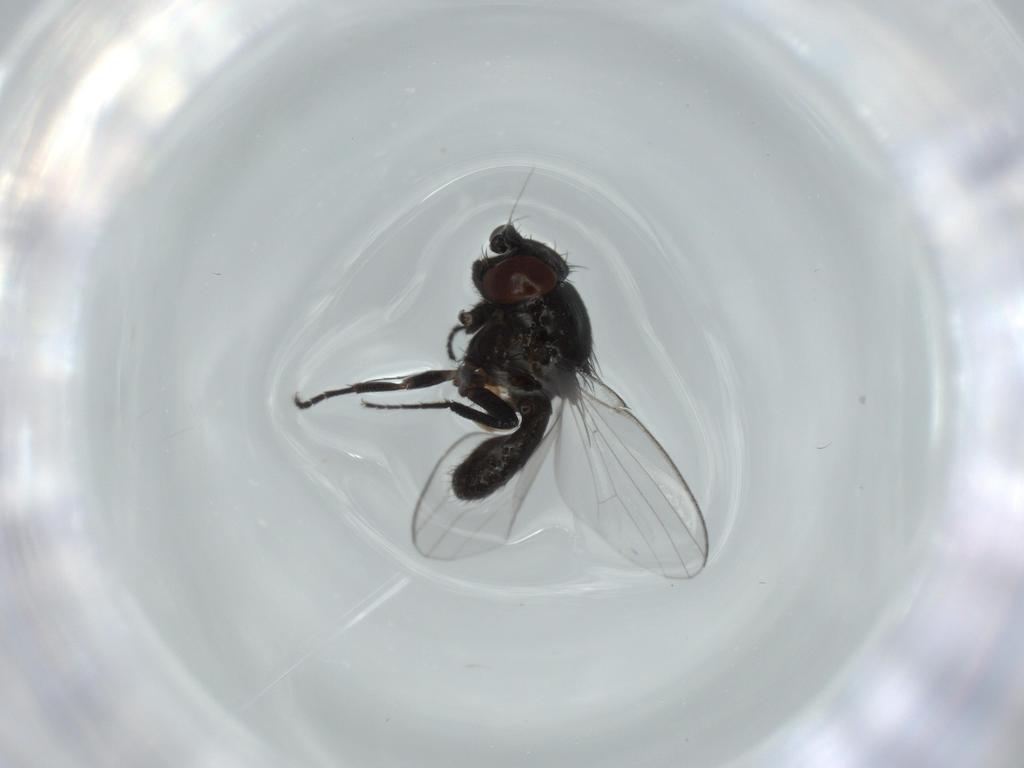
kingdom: Animalia
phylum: Arthropoda
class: Insecta
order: Diptera
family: Milichiidae
